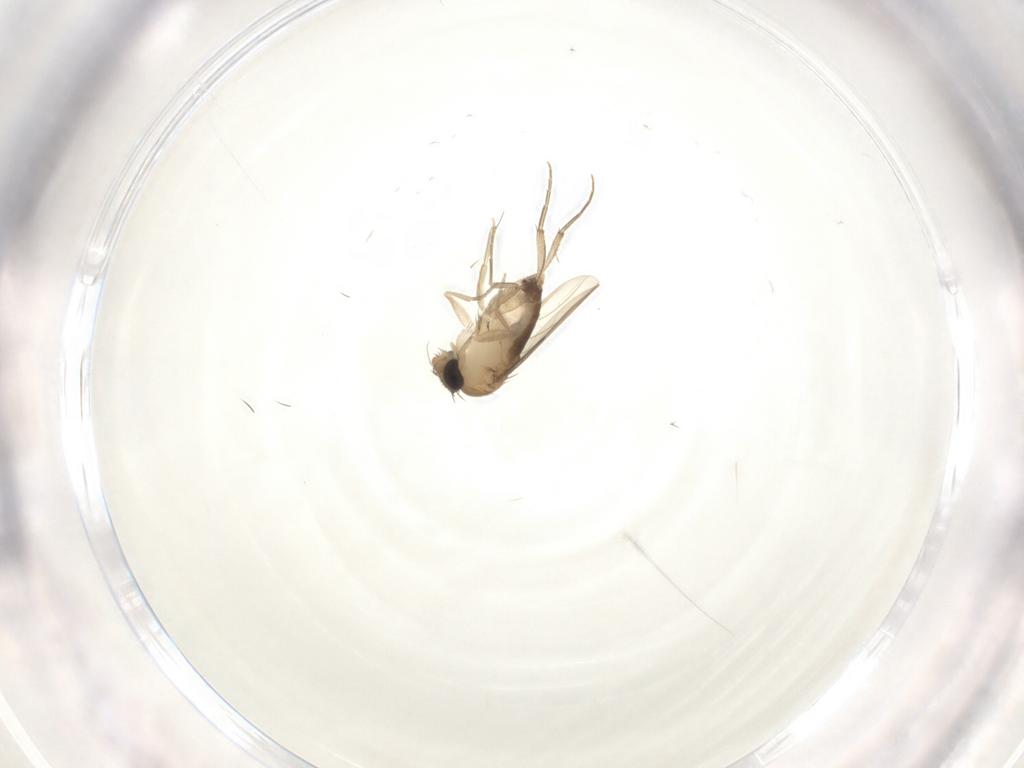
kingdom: Animalia
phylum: Arthropoda
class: Insecta
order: Diptera
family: Phoridae
